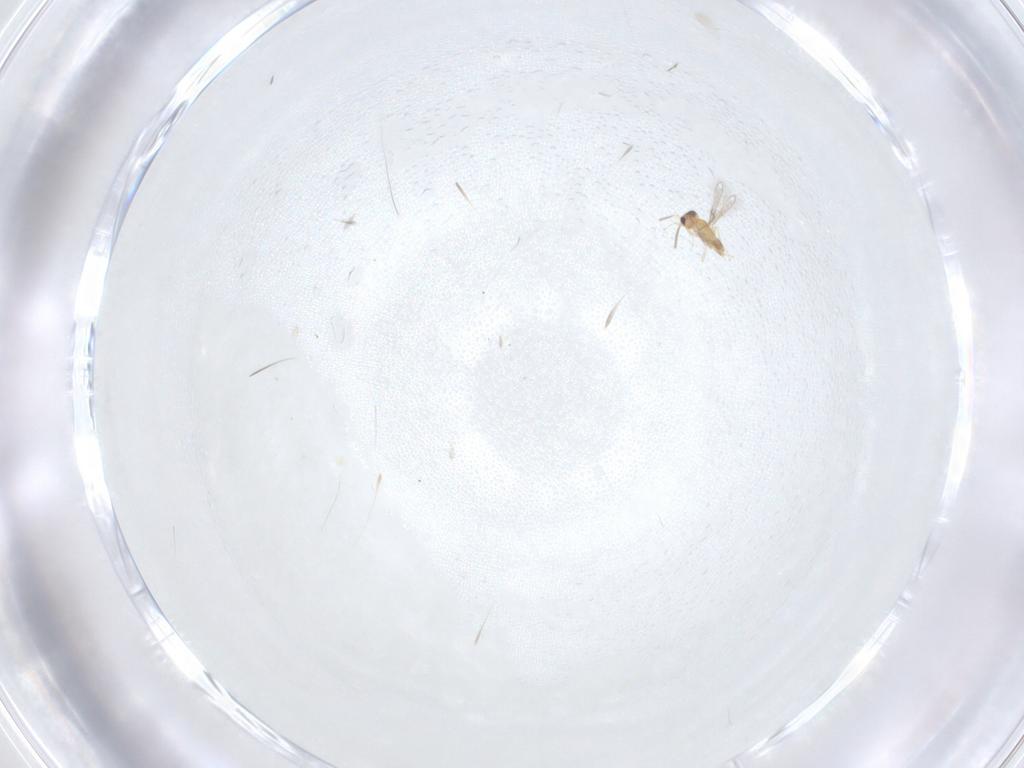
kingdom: Animalia
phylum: Arthropoda
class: Insecta
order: Hymenoptera
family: Mymaridae
